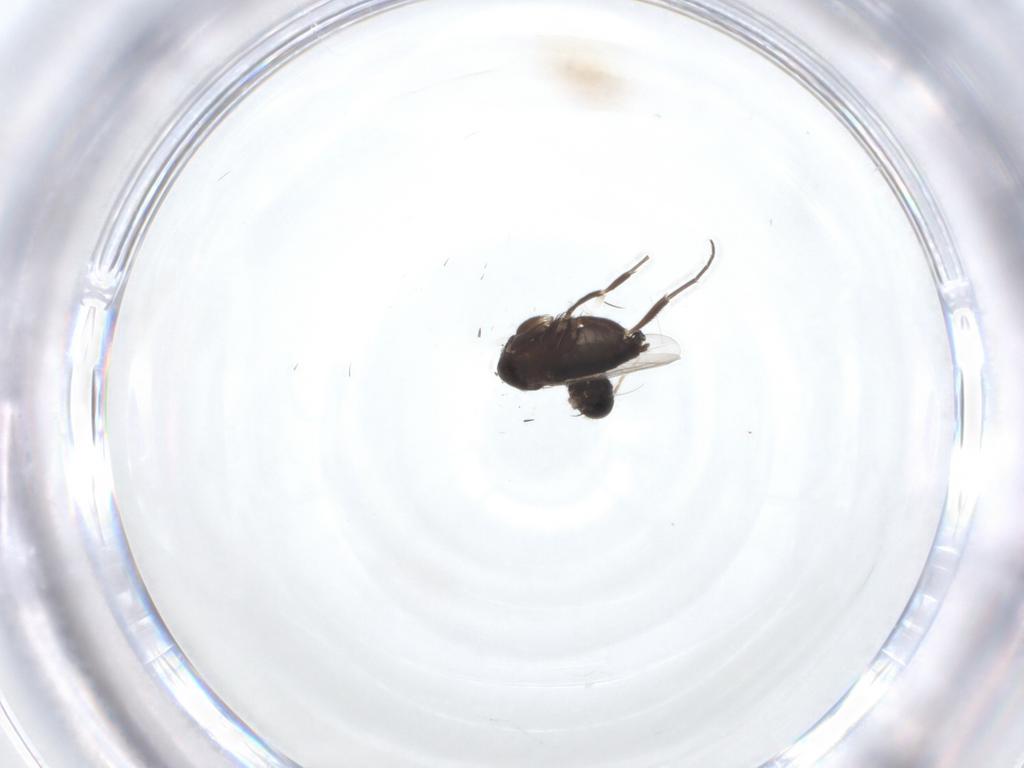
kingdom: Animalia
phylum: Arthropoda
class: Insecta
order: Diptera
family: Phoridae
